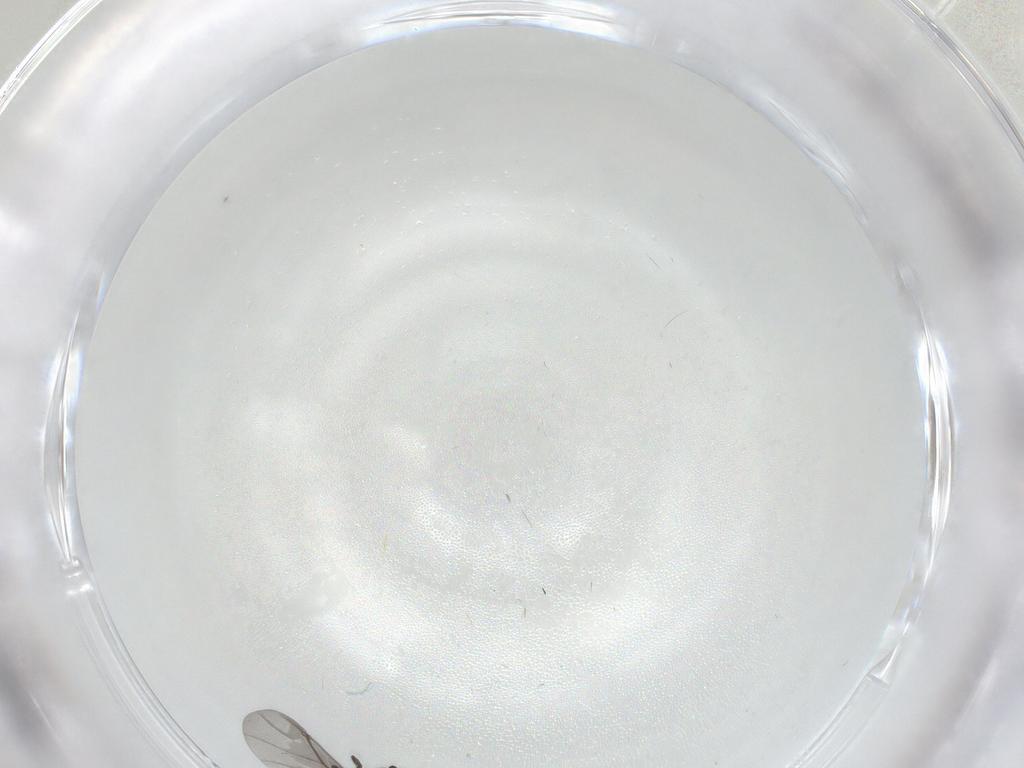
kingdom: Animalia
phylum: Arthropoda
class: Insecta
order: Diptera
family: Phoridae
